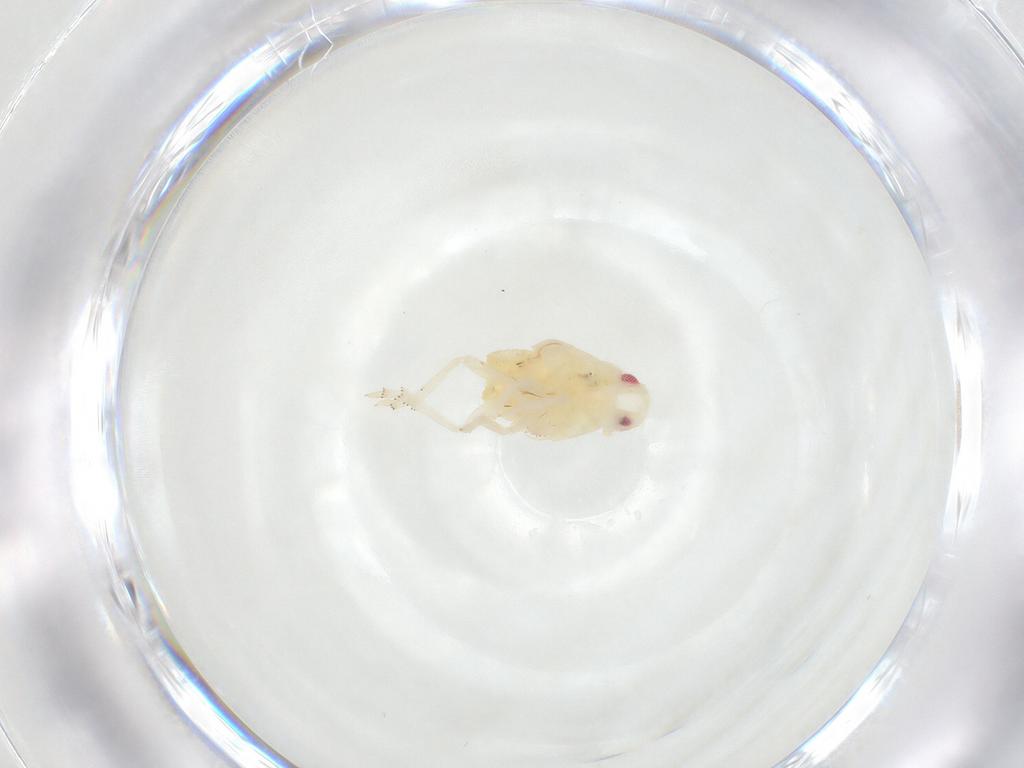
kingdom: Animalia
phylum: Arthropoda
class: Insecta
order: Hemiptera
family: Flatidae
